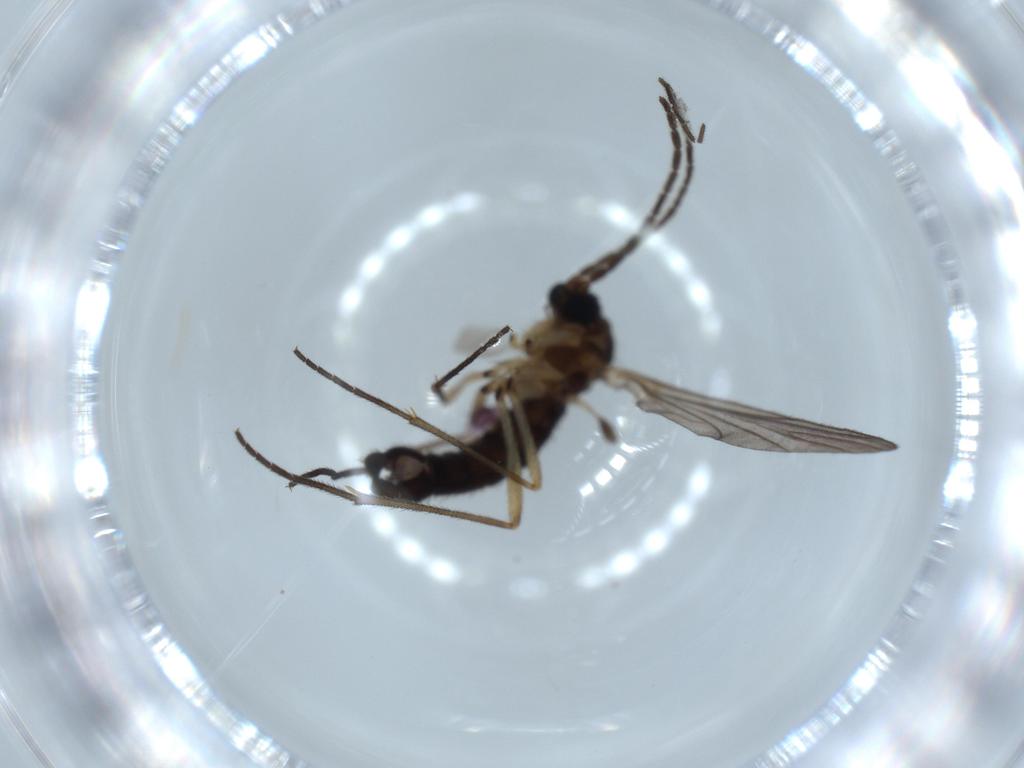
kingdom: Animalia
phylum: Arthropoda
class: Insecta
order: Diptera
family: Sciaridae
